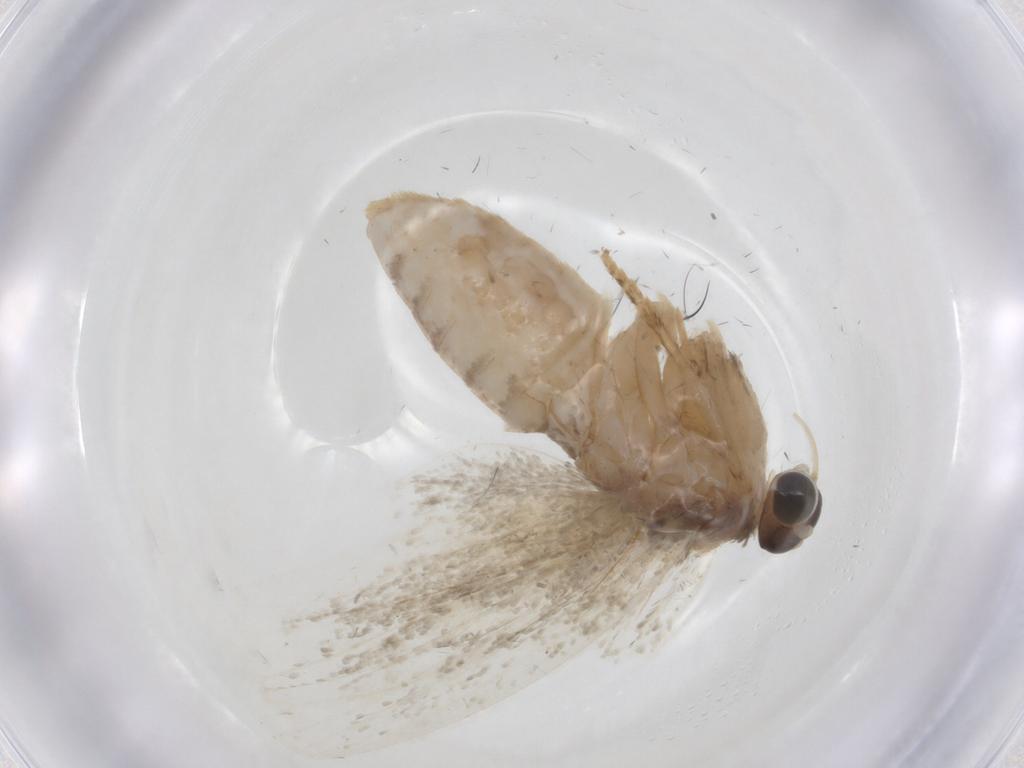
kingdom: Animalia
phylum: Arthropoda
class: Insecta
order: Lepidoptera
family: Tortricidae
